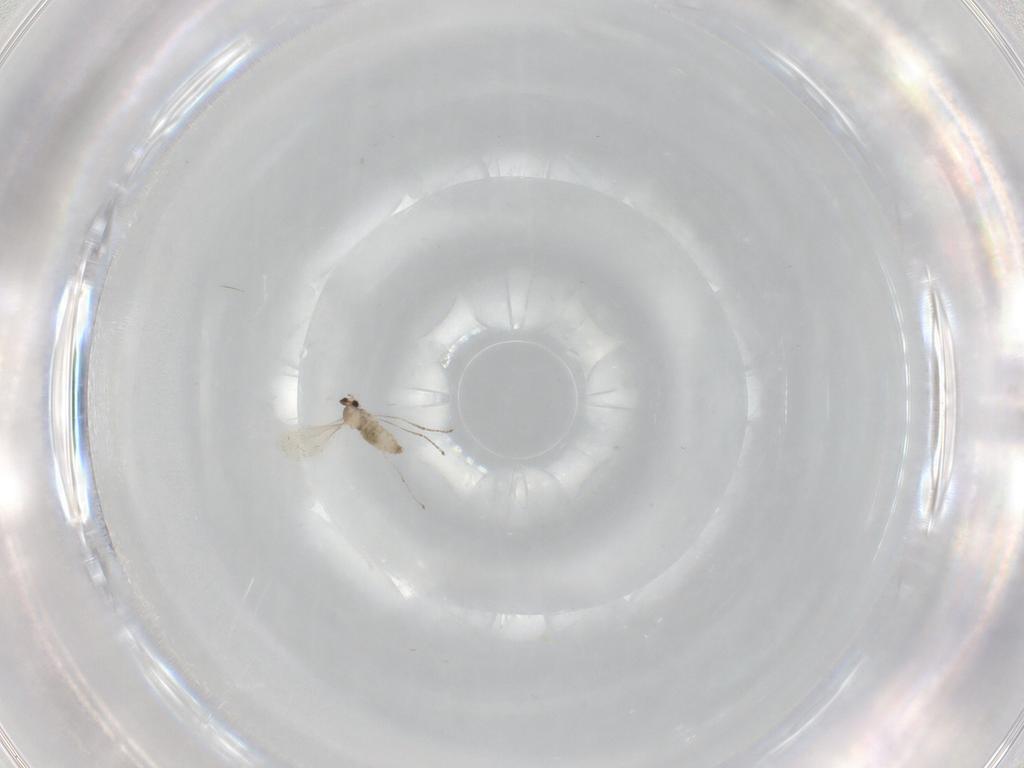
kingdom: Animalia
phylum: Arthropoda
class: Insecta
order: Diptera
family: Cecidomyiidae
